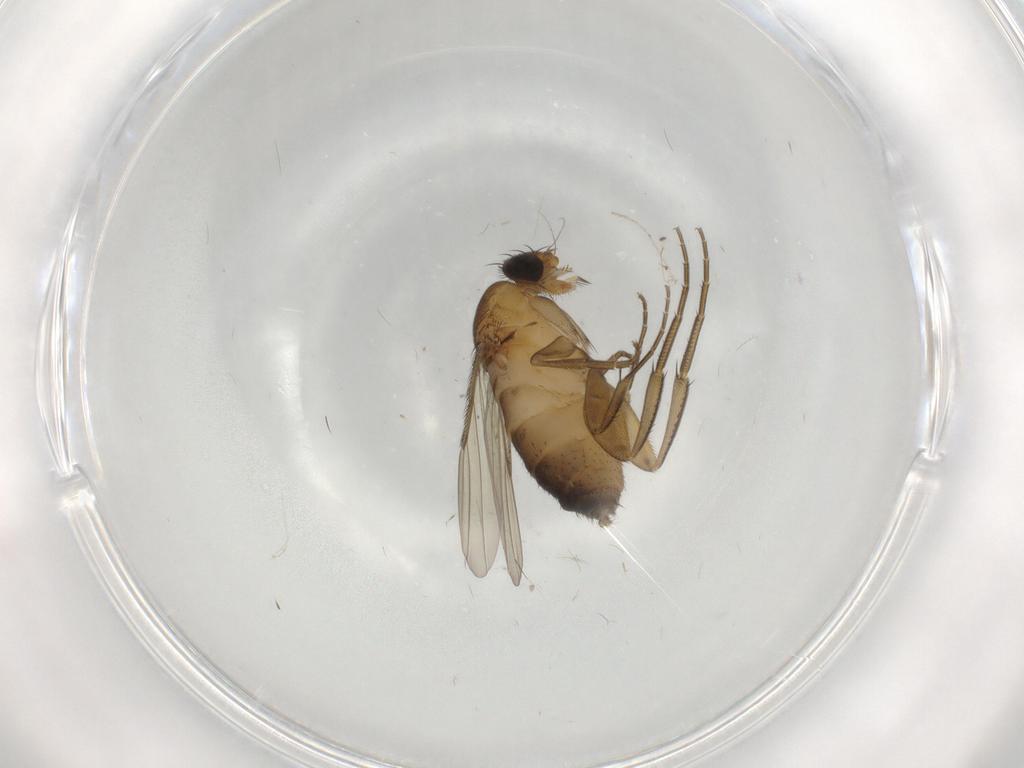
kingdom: Animalia
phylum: Arthropoda
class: Insecta
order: Diptera
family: Phoridae
